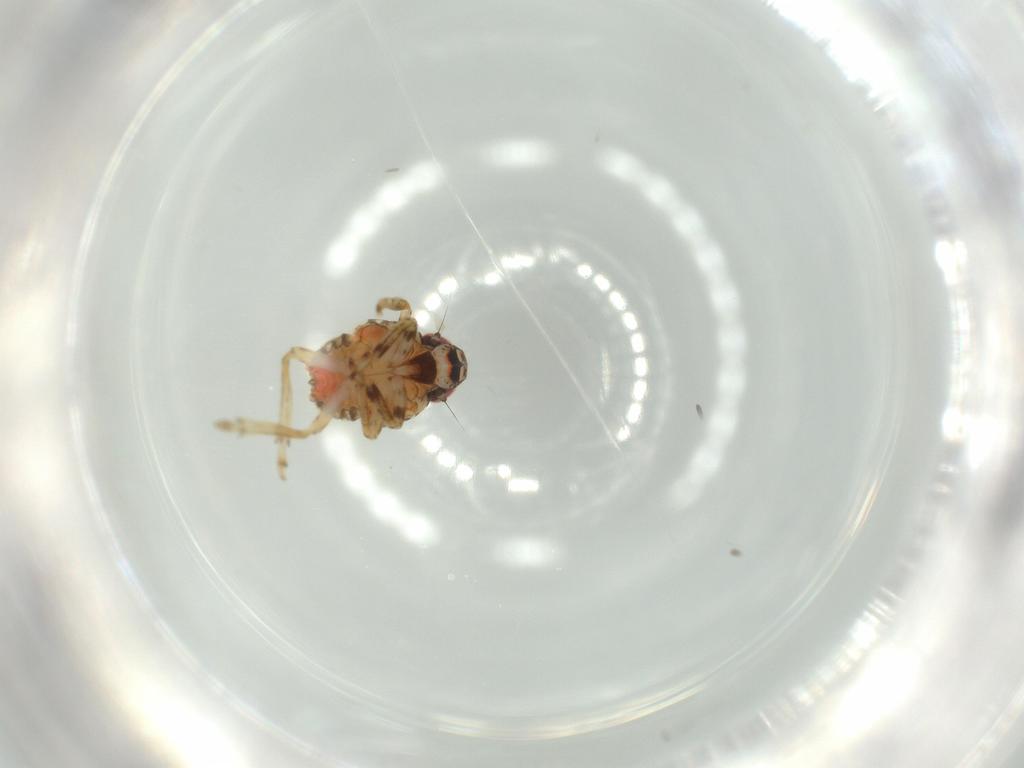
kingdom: Animalia
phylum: Arthropoda
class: Insecta
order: Hemiptera
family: Issidae
